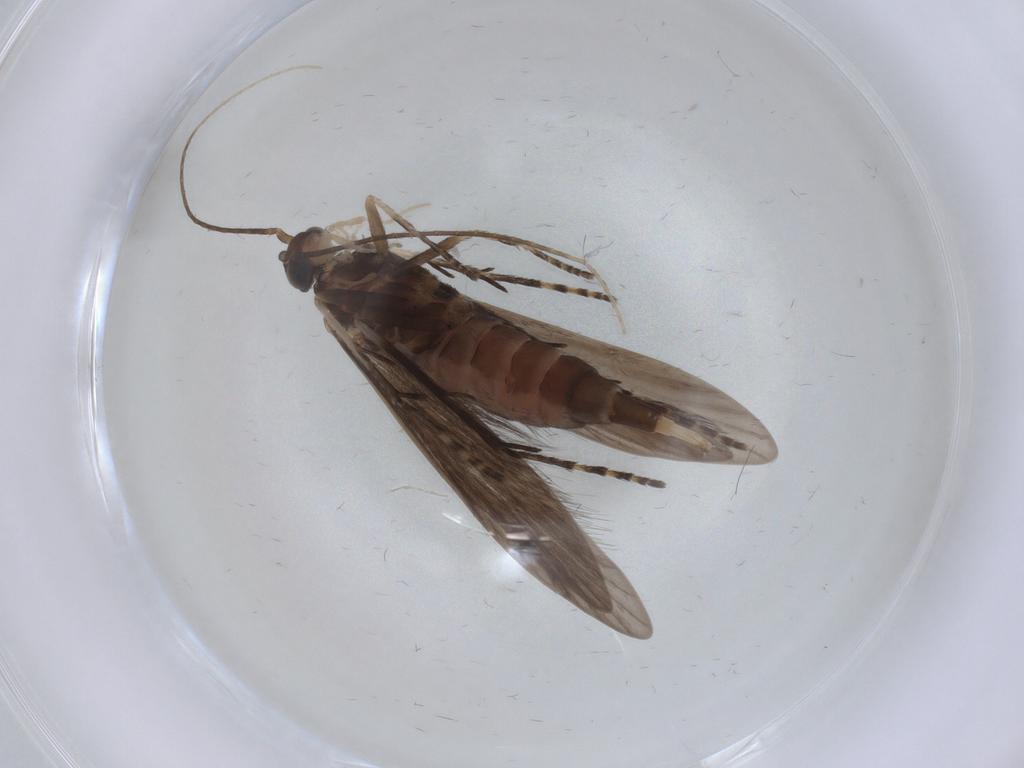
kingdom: Animalia
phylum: Arthropoda
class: Insecta
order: Trichoptera
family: Xiphocentronidae
